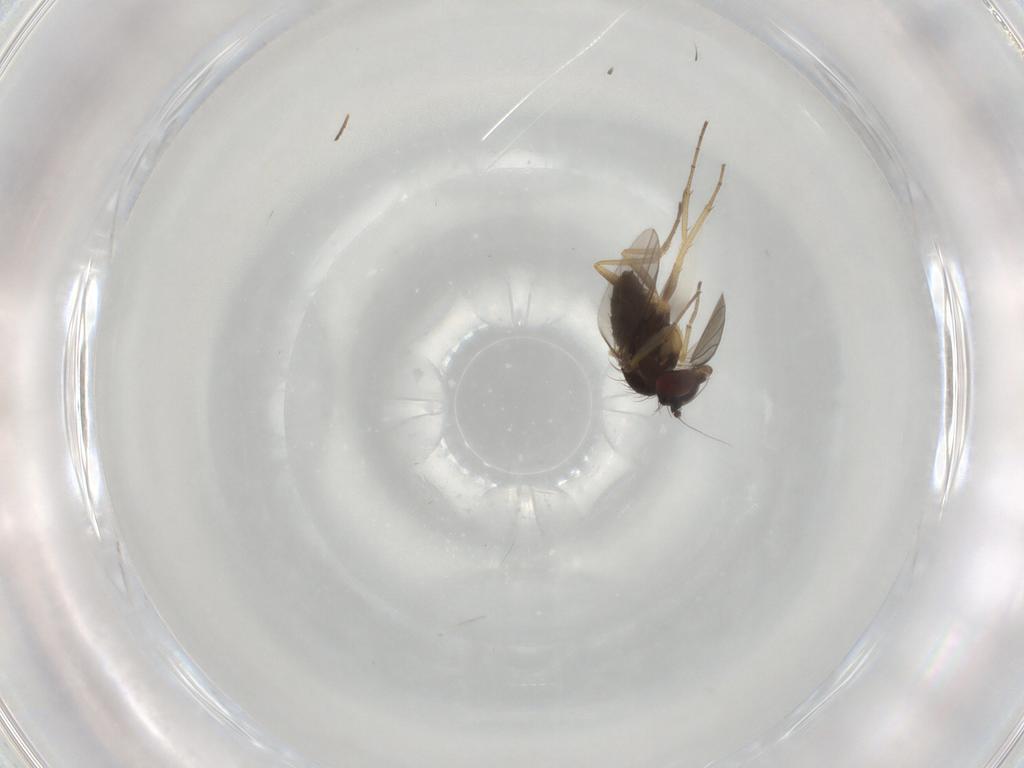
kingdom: Animalia
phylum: Arthropoda
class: Insecta
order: Diptera
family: Dolichopodidae
